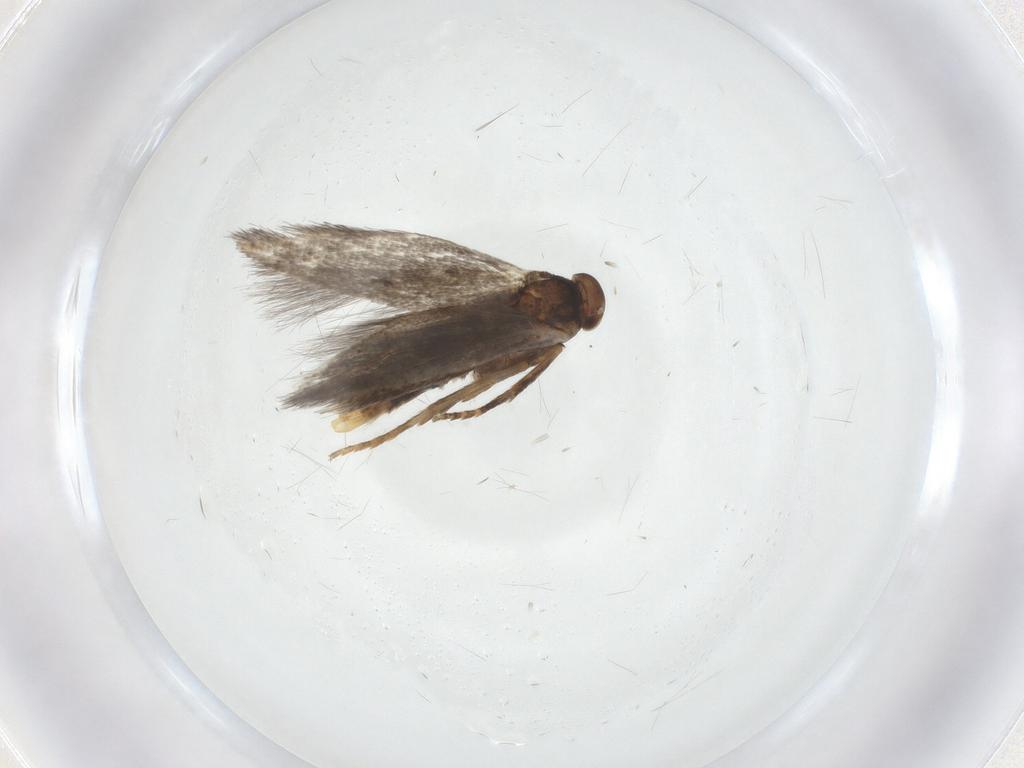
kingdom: Animalia
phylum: Arthropoda
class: Insecta
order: Lepidoptera
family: Elachistidae
